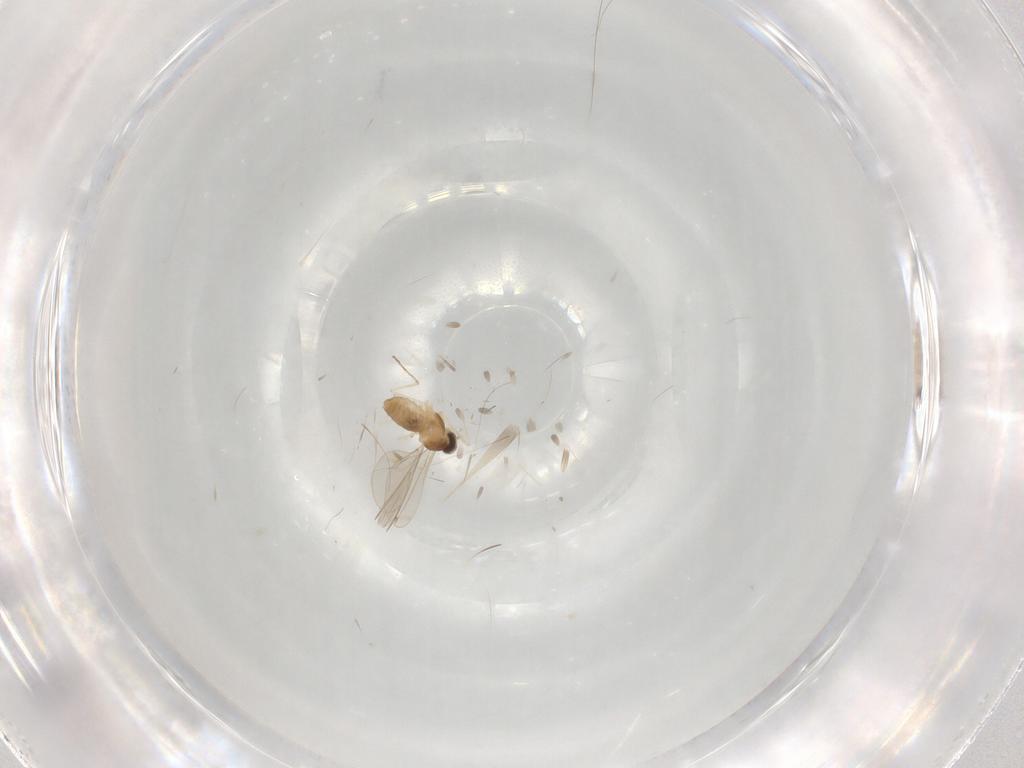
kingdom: Animalia
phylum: Arthropoda
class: Insecta
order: Diptera
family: Cecidomyiidae
